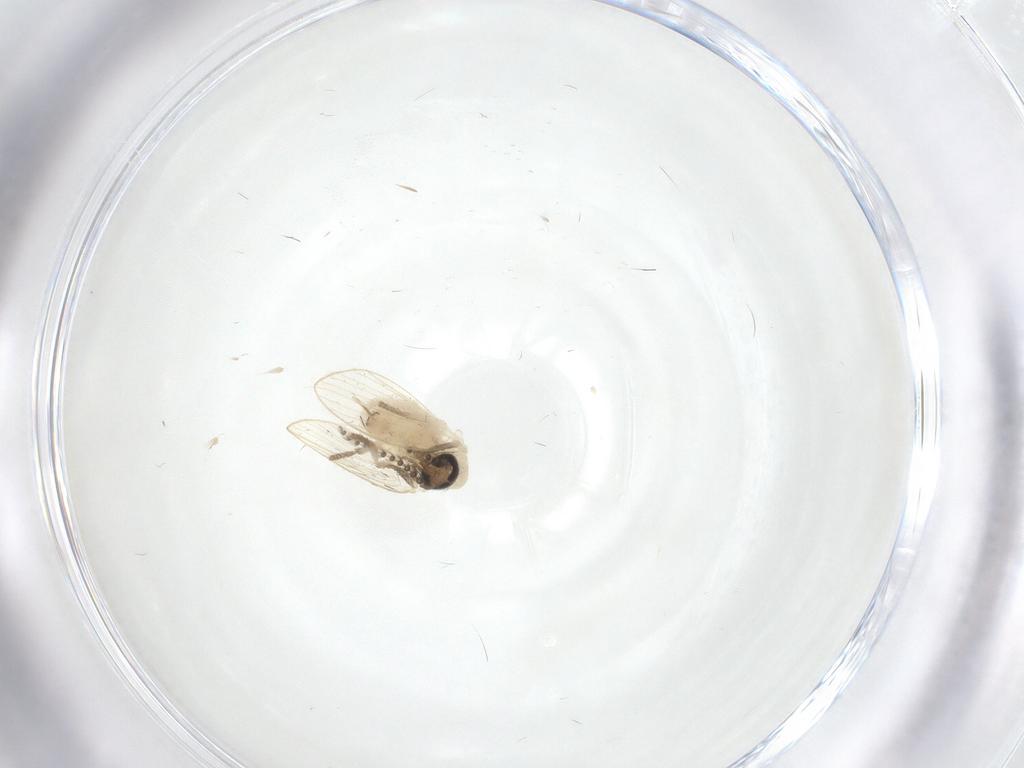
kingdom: Animalia
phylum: Arthropoda
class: Insecta
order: Diptera
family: Psychodidae
